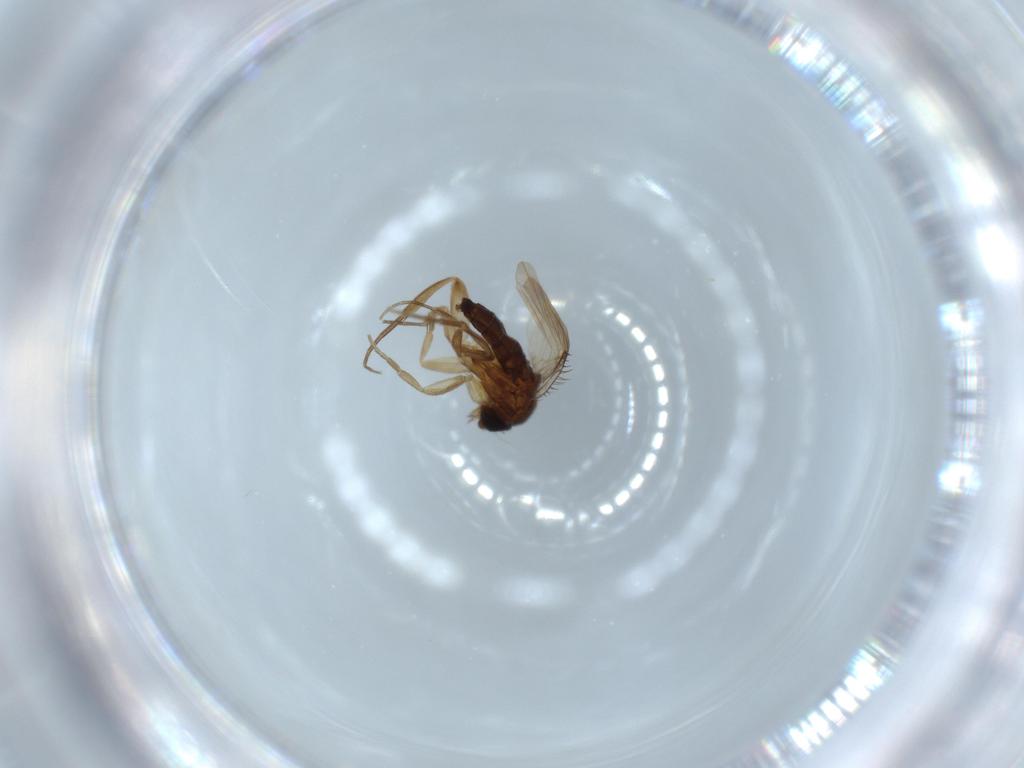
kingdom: Animalia
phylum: Arthropoda
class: Insecta
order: Diptera
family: Phoridae
